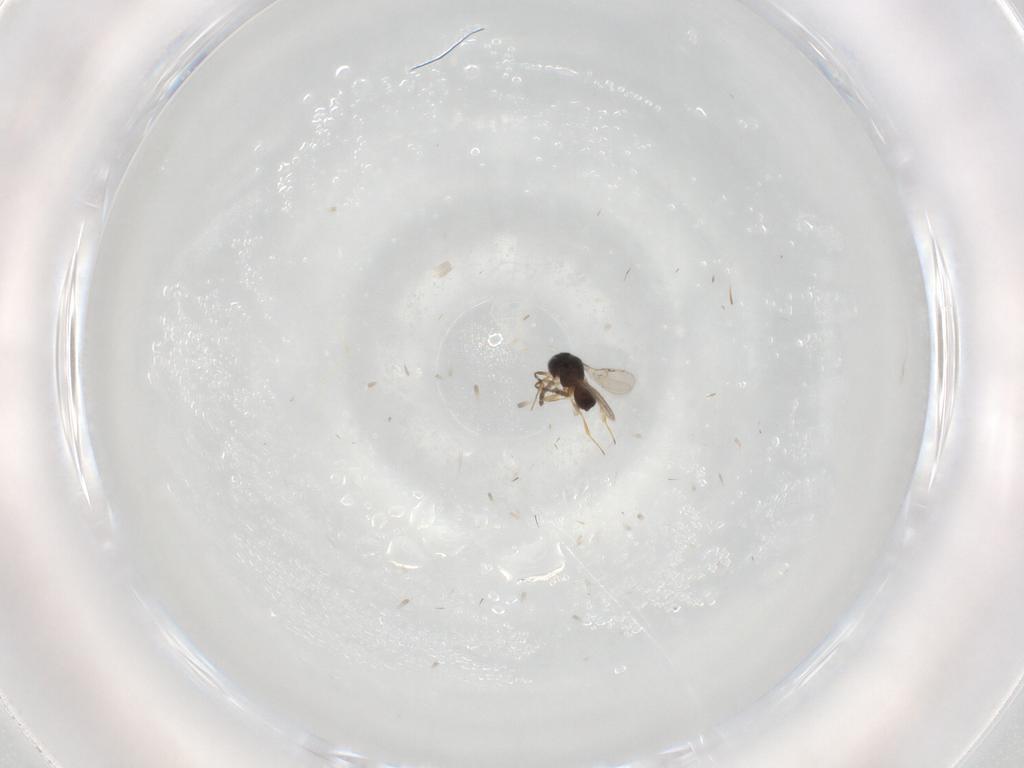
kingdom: Animalia
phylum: Arthropoda
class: Insecta
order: Hymenoptera
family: Scelionidae
